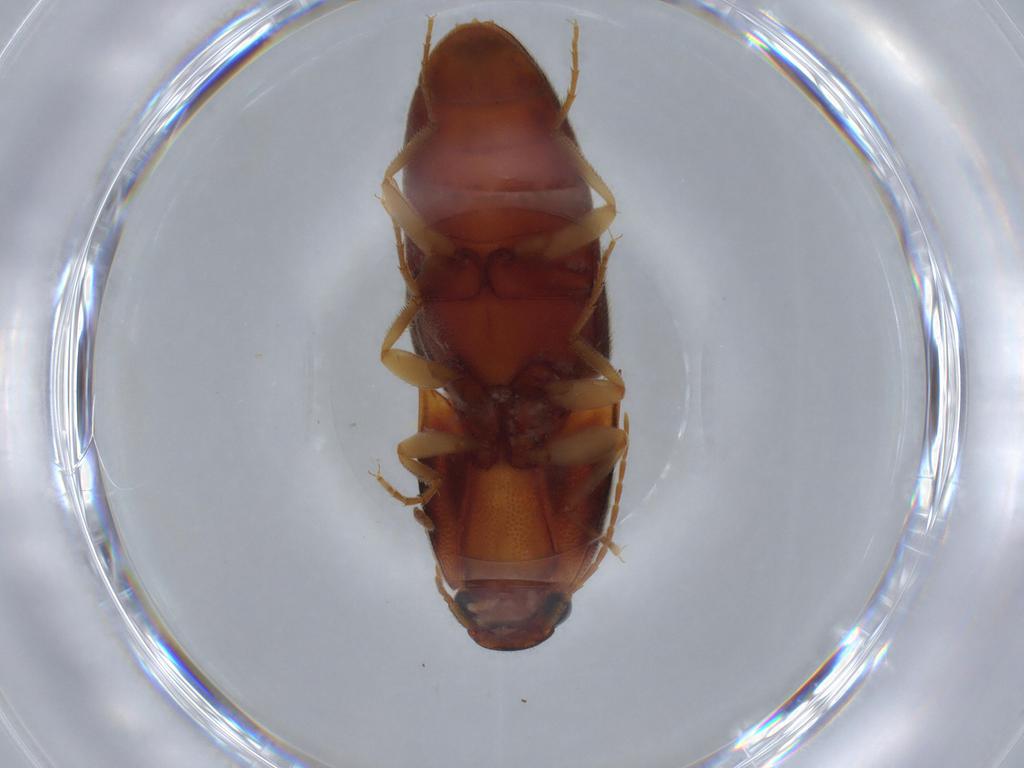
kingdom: Animalia
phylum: Arthropoda
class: Insecta
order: Coleoptera
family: Elateridae
